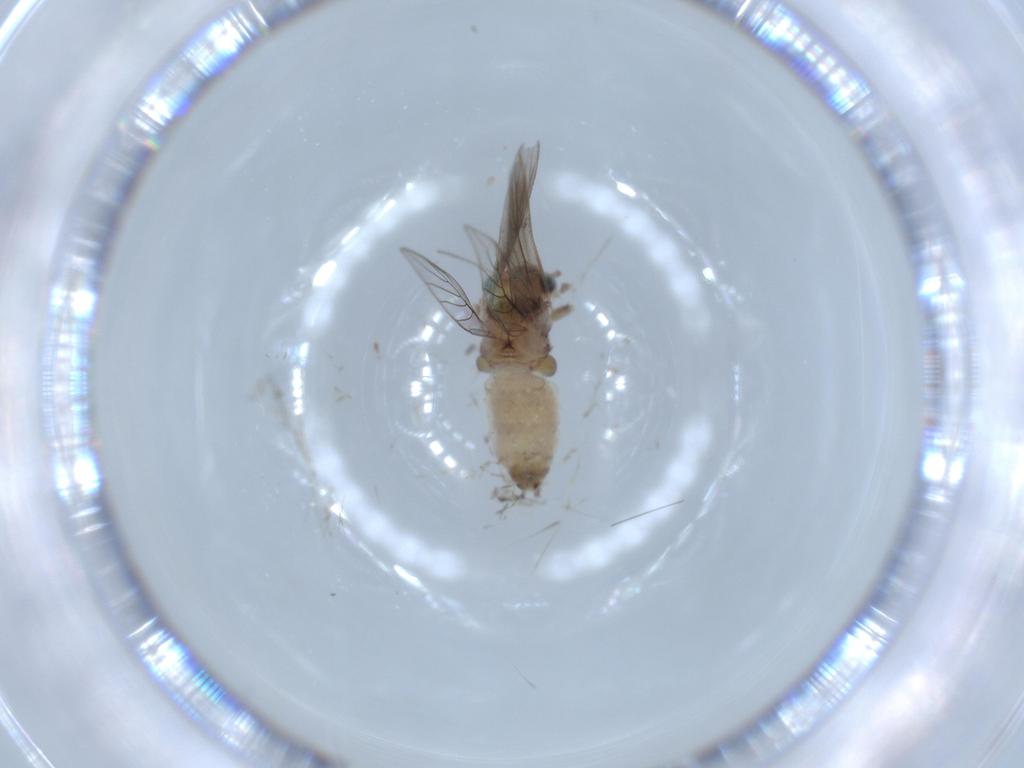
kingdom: Animalia
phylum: Arthropoda
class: Insecta
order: Psocodea
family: Lepidopsocidae
